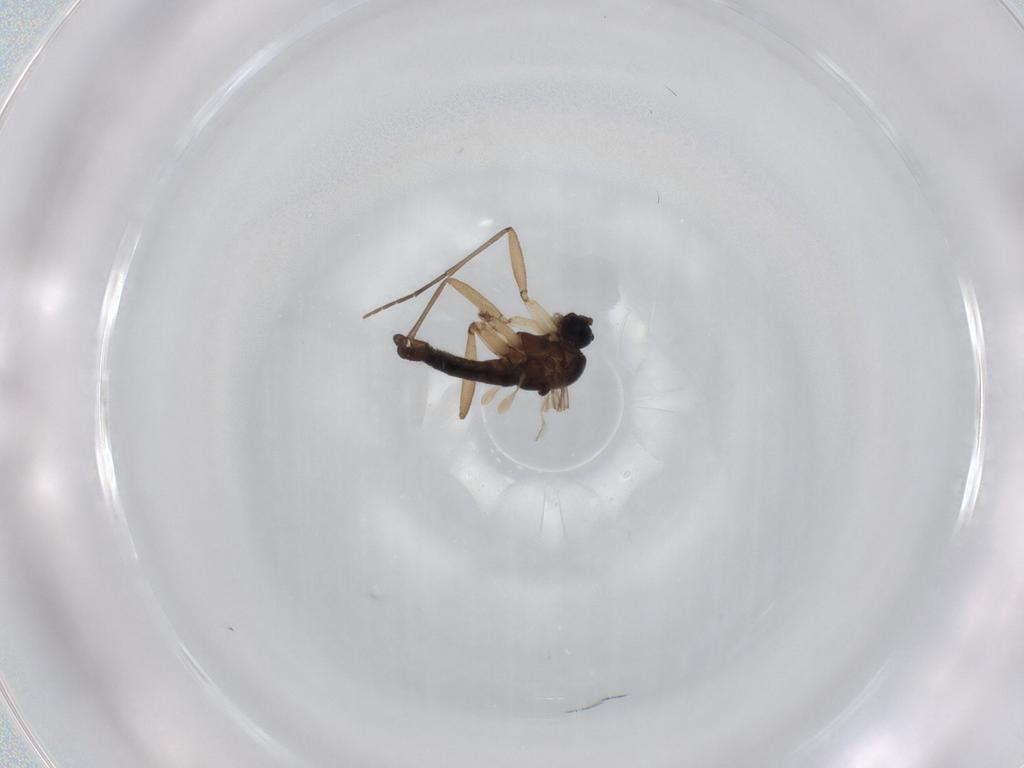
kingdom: Animalia
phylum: Arthropoda
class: Insecta
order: Diptera
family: Sciaridae
